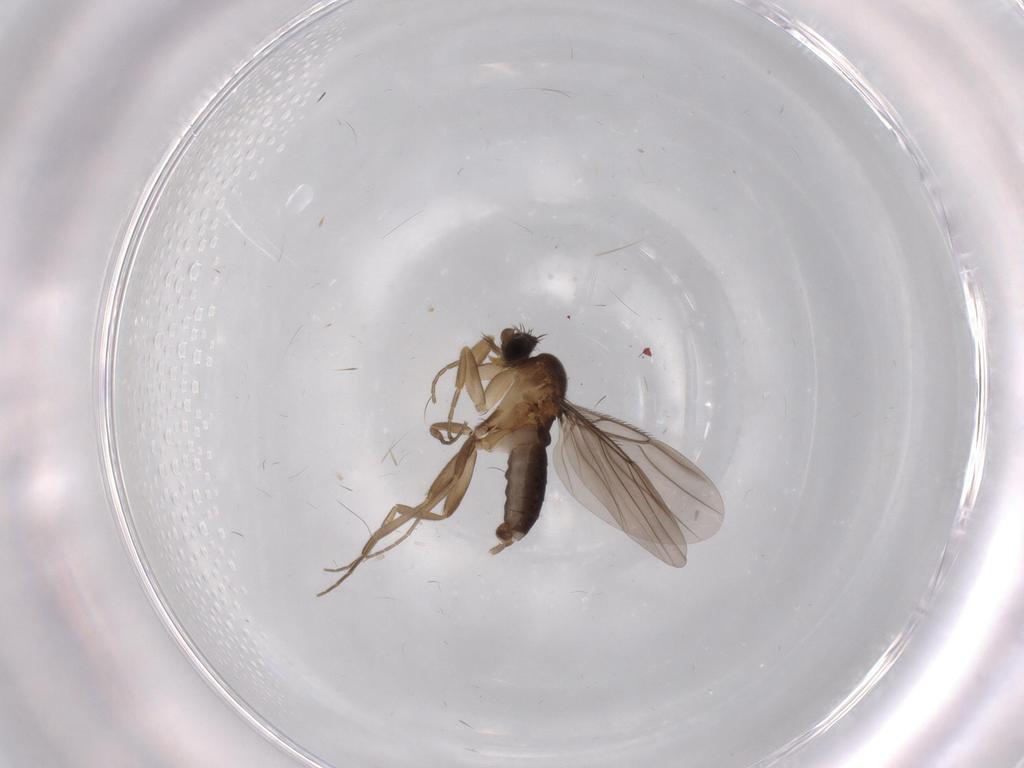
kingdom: Animalia
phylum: Arthropoda
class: Insecta
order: Diptera
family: Phoridae
